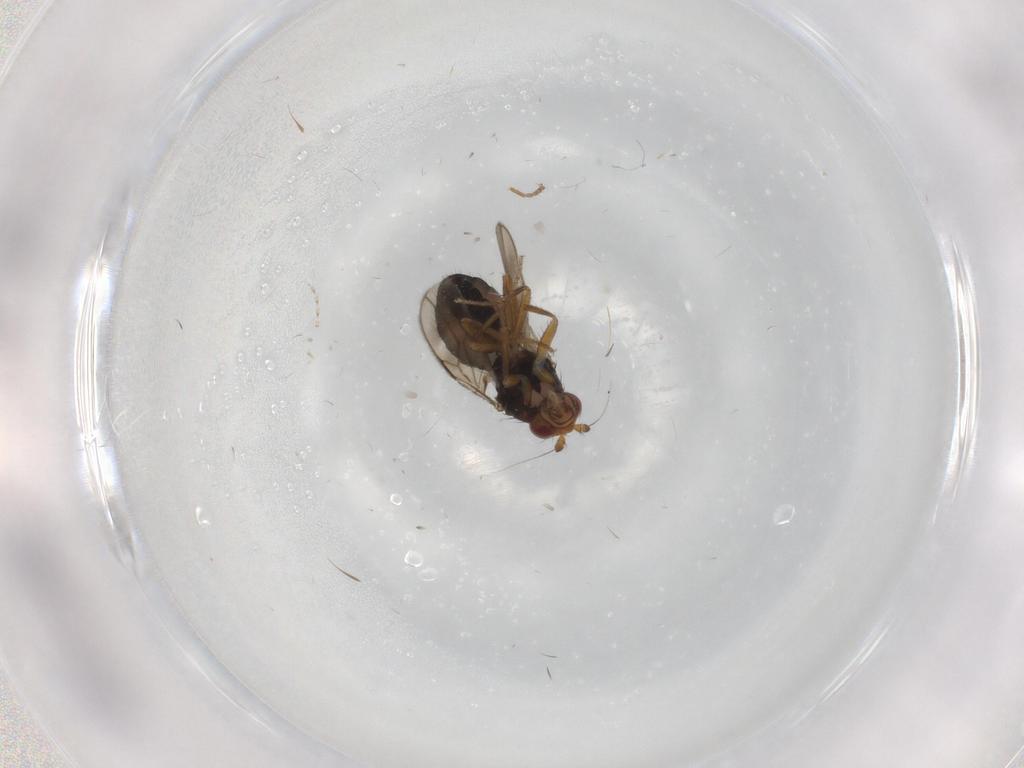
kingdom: Animalia
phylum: Arthropoda
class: Insecta
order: Diptera
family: Sphaeroceridae
